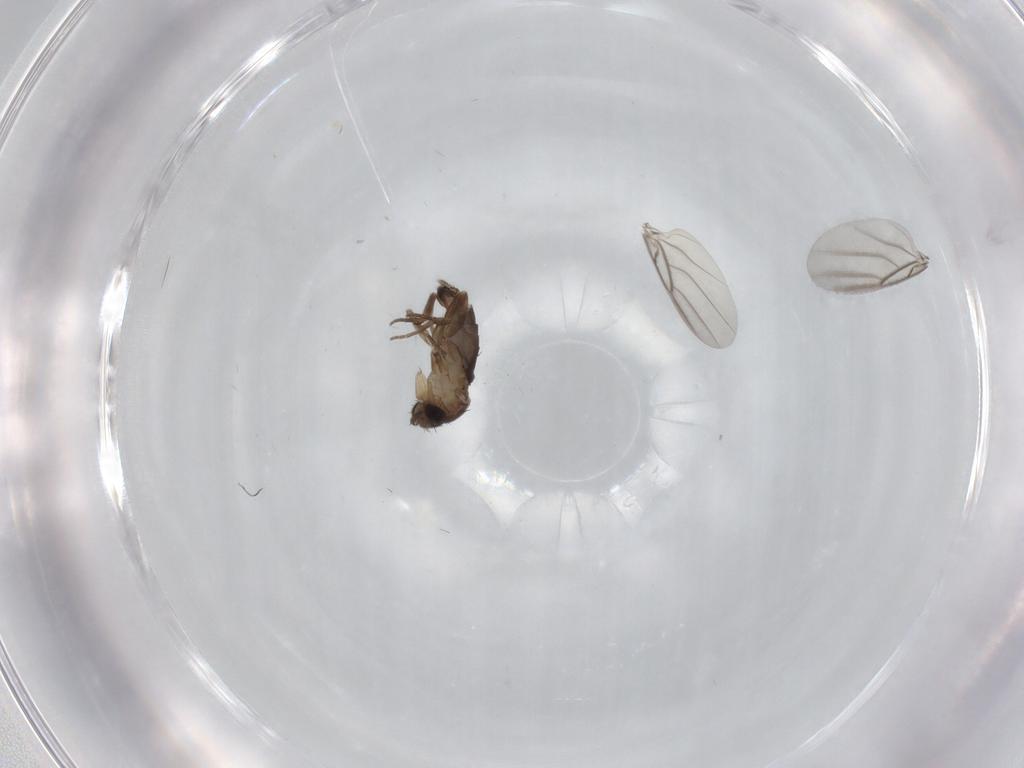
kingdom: Animalia
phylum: Arthropoda
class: Insecta
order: Diptera
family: Phoridae
